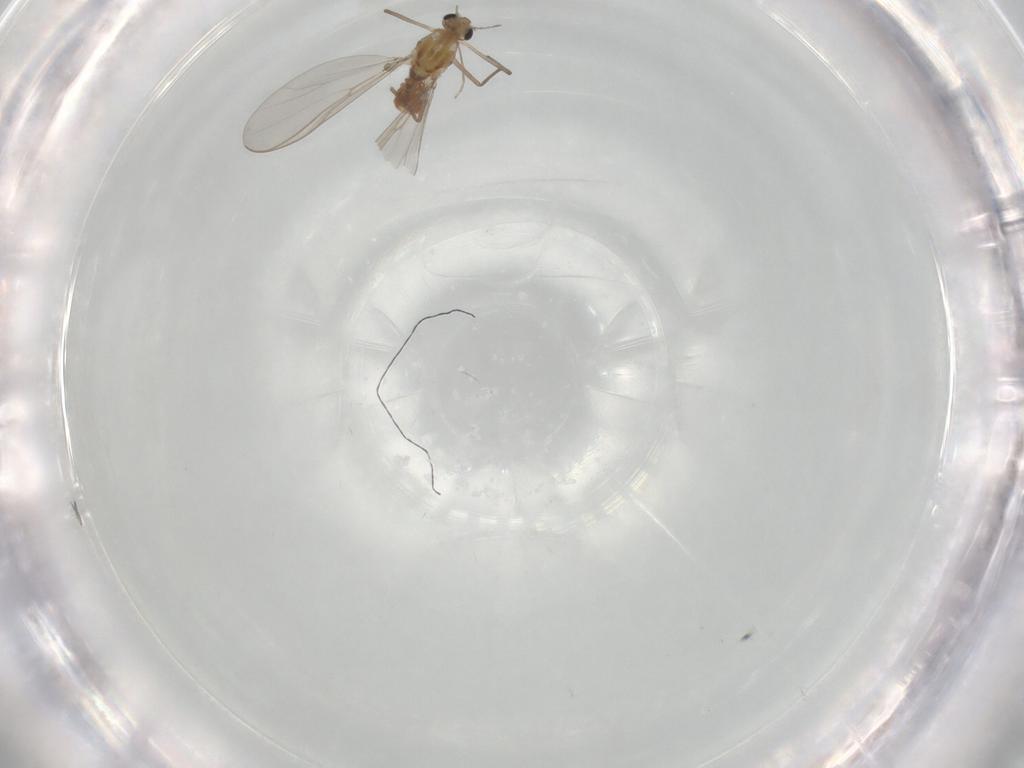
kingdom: Animalia
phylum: Arthropoda
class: Insecta
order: Diptera
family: Chironomidae
